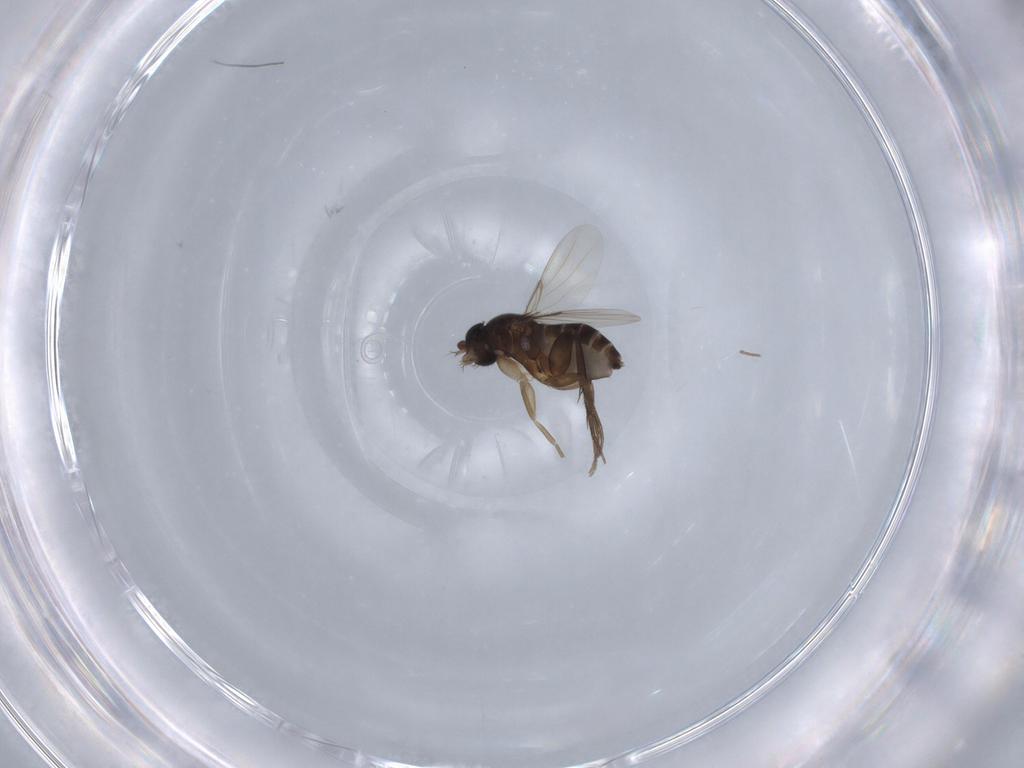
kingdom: Animalia
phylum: Arthropoda
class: Insecta
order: Diptera
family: Phoridae
